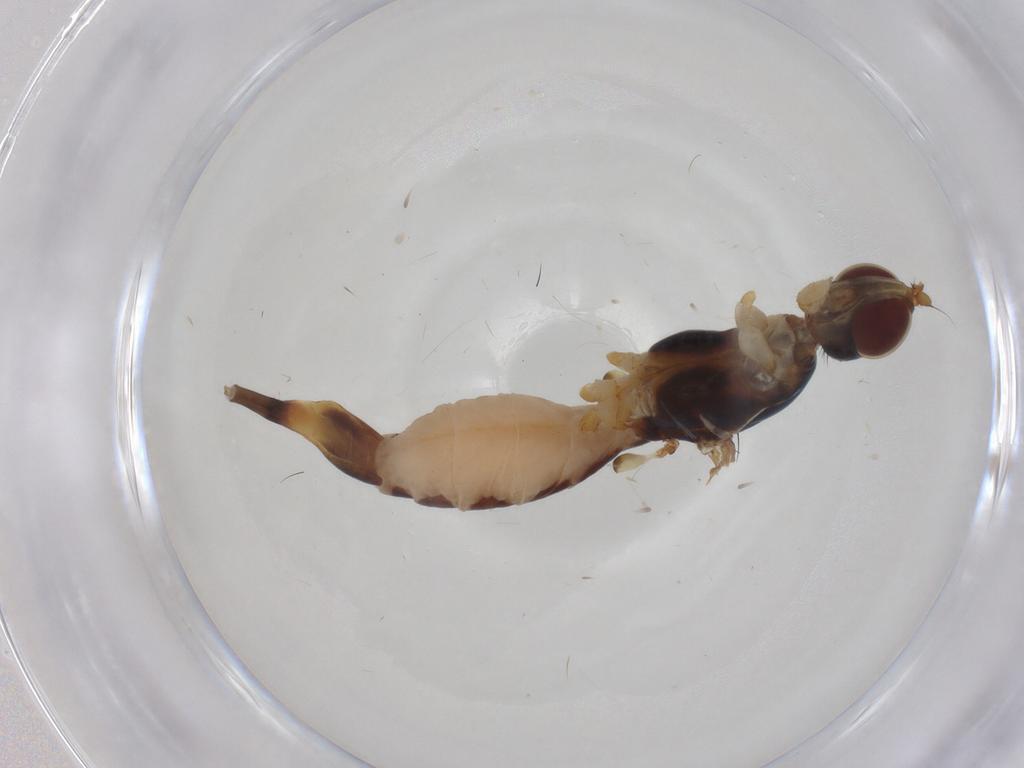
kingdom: Animalia
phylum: Arthropoda
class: Insecta
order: Diptera
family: Micropezidae
